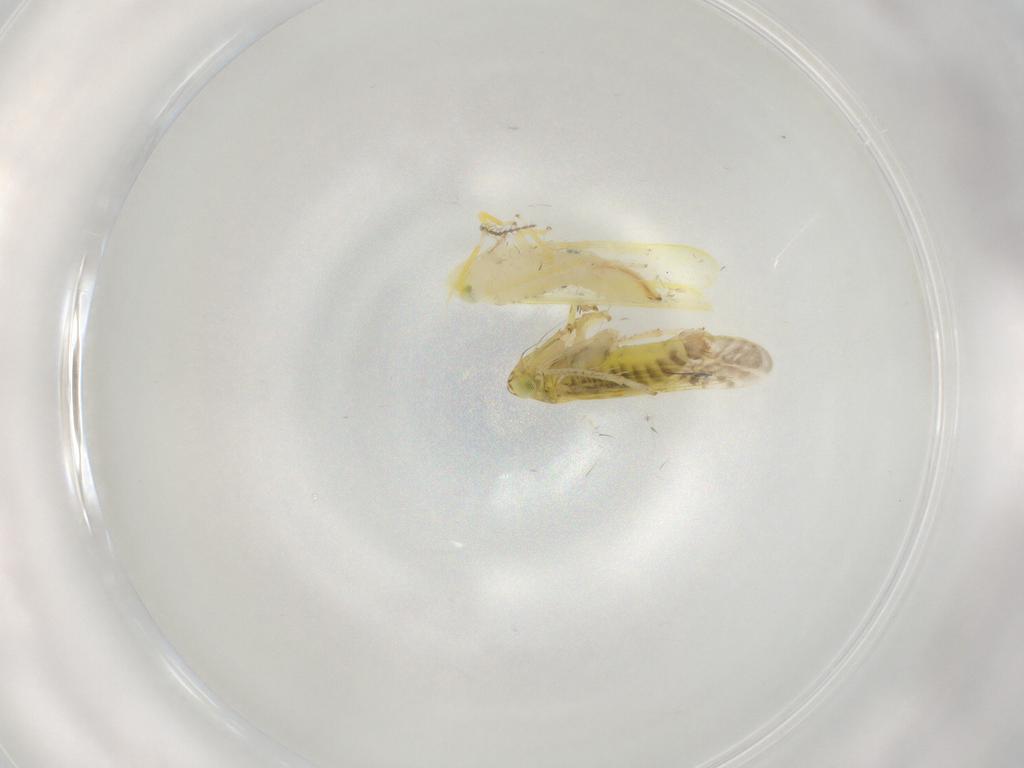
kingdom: Animalia
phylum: Arthropoda
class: Insecta
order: Hemiptera
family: Cicadellidae
